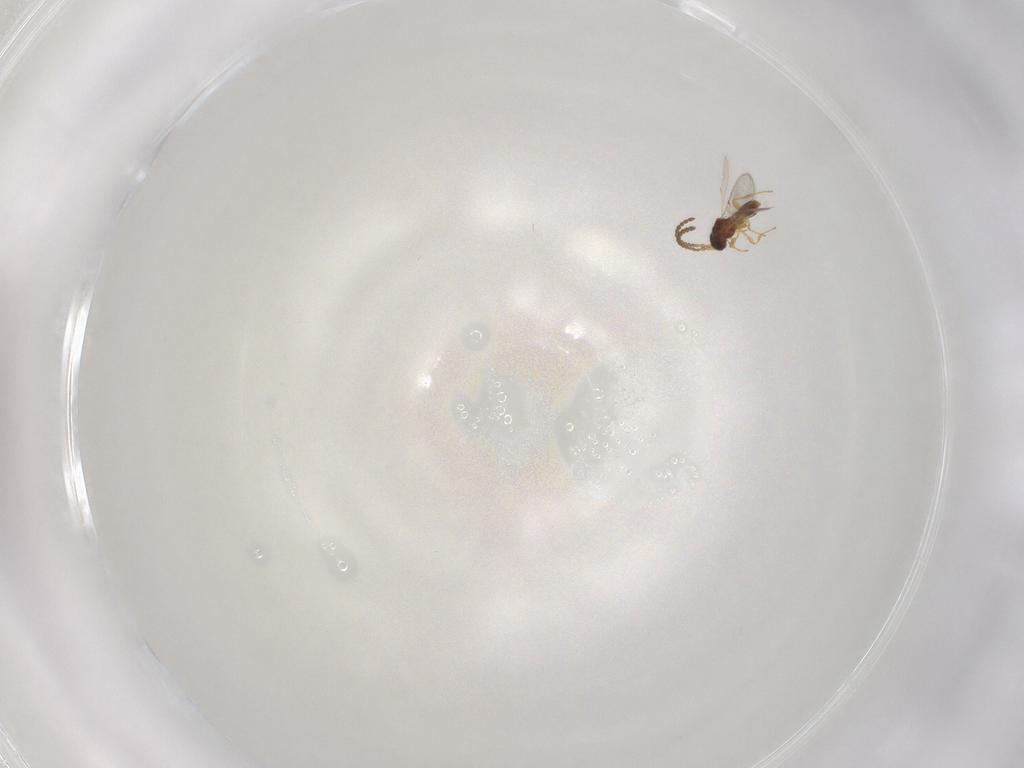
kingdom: Animalia
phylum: Arthropoda
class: Insecta
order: Hymenoptera
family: Diapriidae
